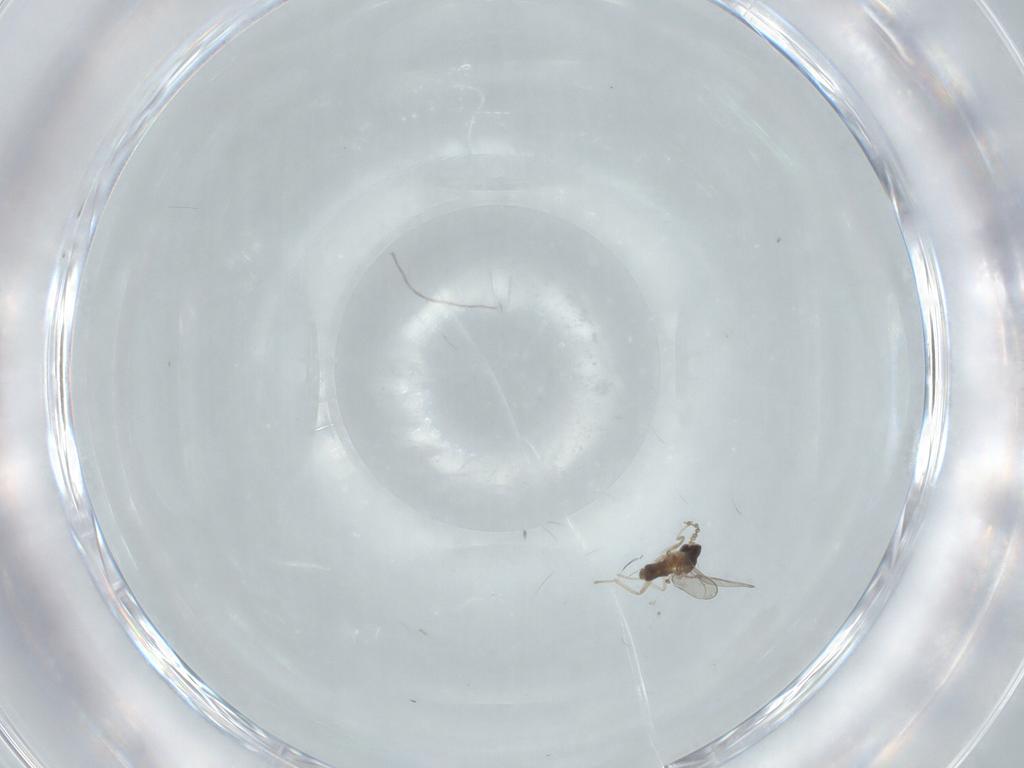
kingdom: Animalia
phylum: Arthropoda
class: Insecta
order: Diptera
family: Cecidomyiidae
